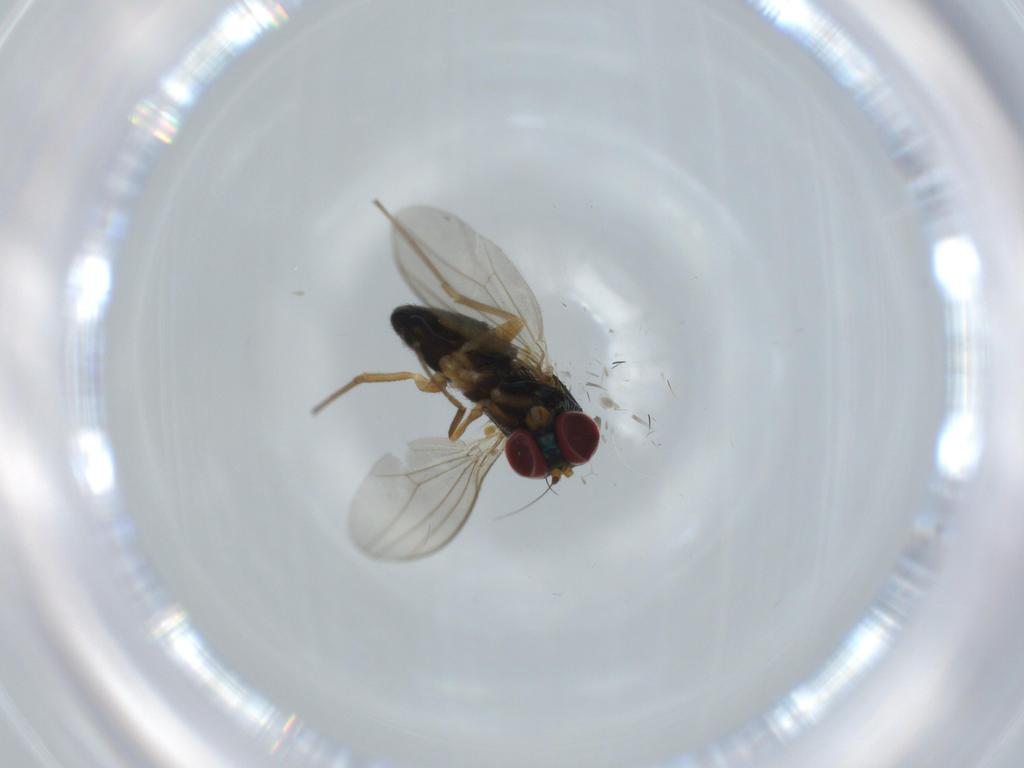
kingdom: Animalia
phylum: Arthropoda
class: Insecta
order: Diptera
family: Dolichopodidae
